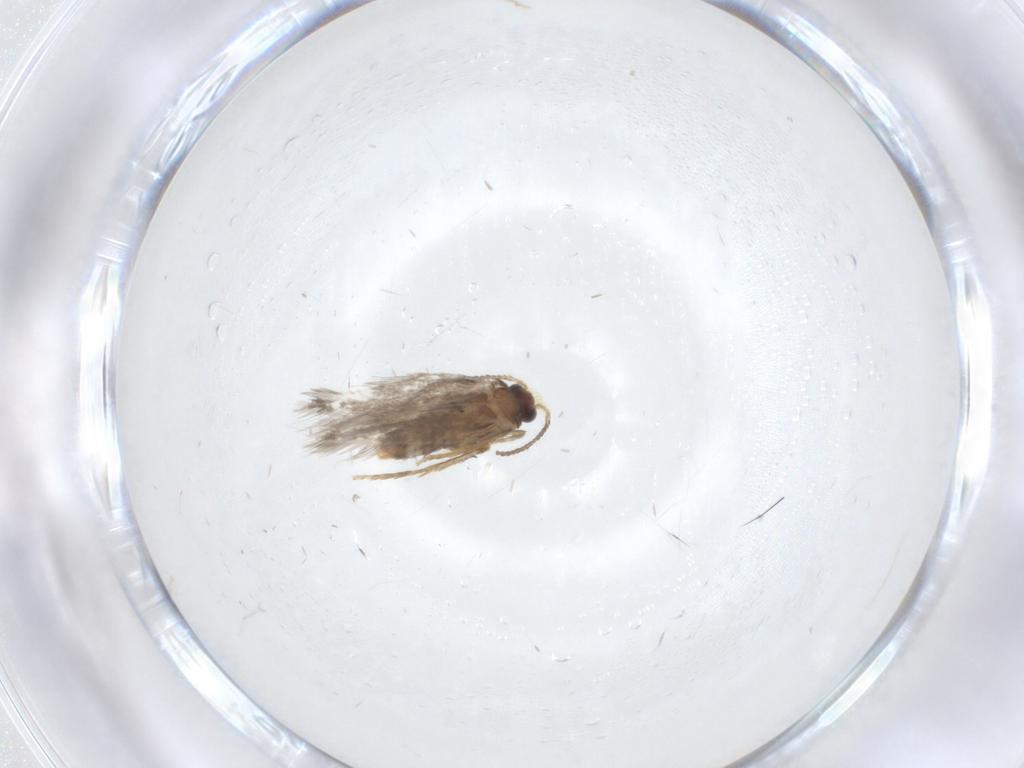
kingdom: Animalia
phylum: Arthropoda
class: Insecta
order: Lepidoptera
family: Nepticulidae
